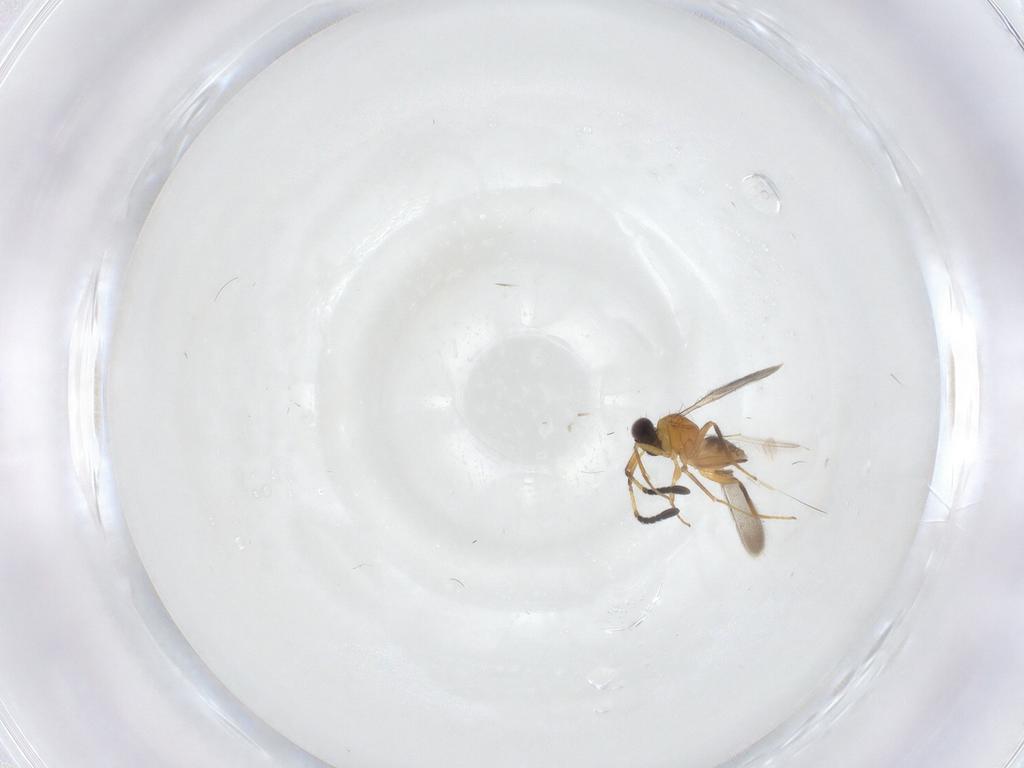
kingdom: Animalia
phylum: Arthropoda
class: Insecta
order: Hymenoptera
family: Mymaridae
